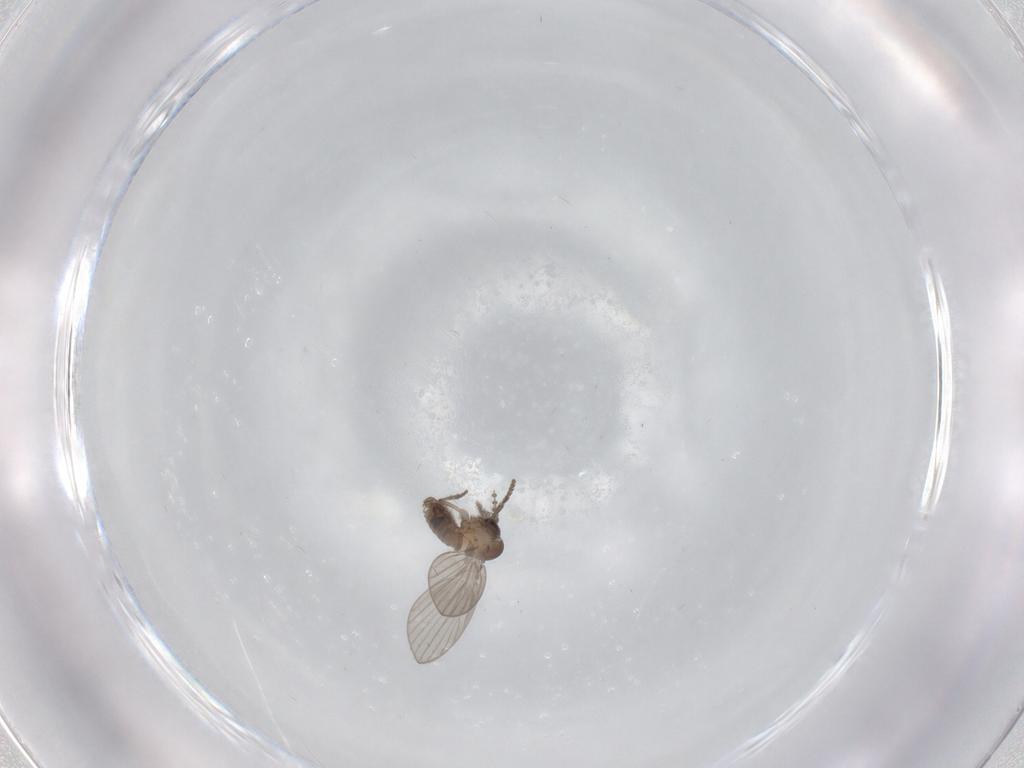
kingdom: Animalia
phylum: Arthropoda
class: Insecta
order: Diptera
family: Psychodidae
